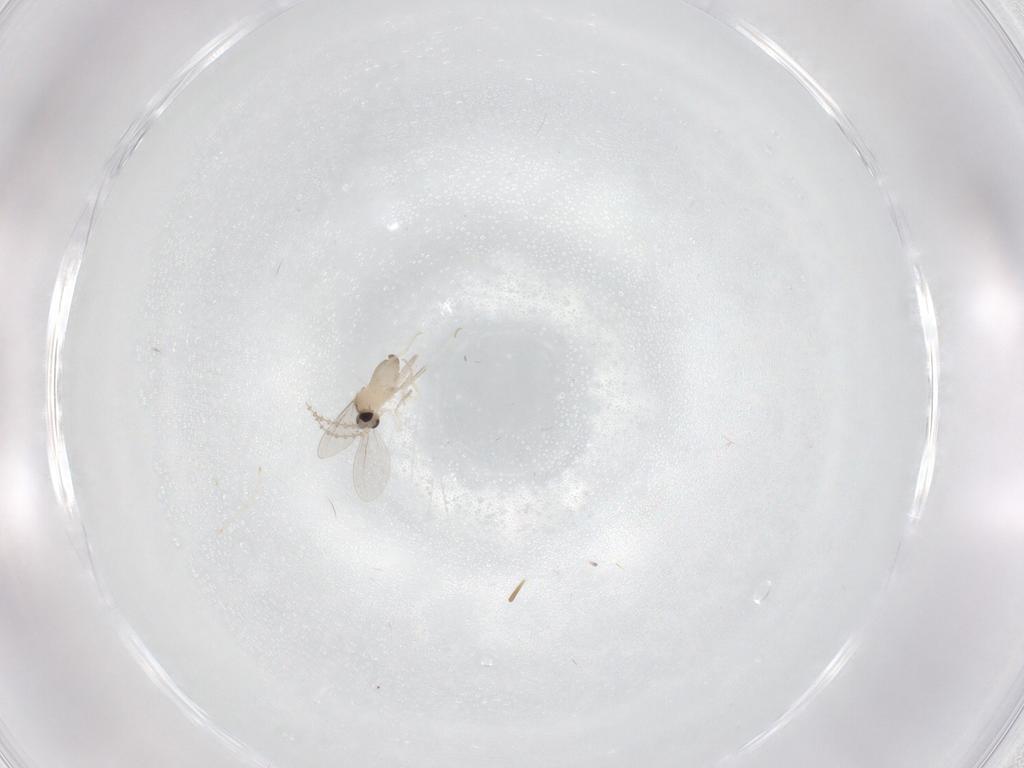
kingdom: Animalia
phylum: Arthropoda
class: Insecta
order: Diptera
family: Cecidomyiidae
